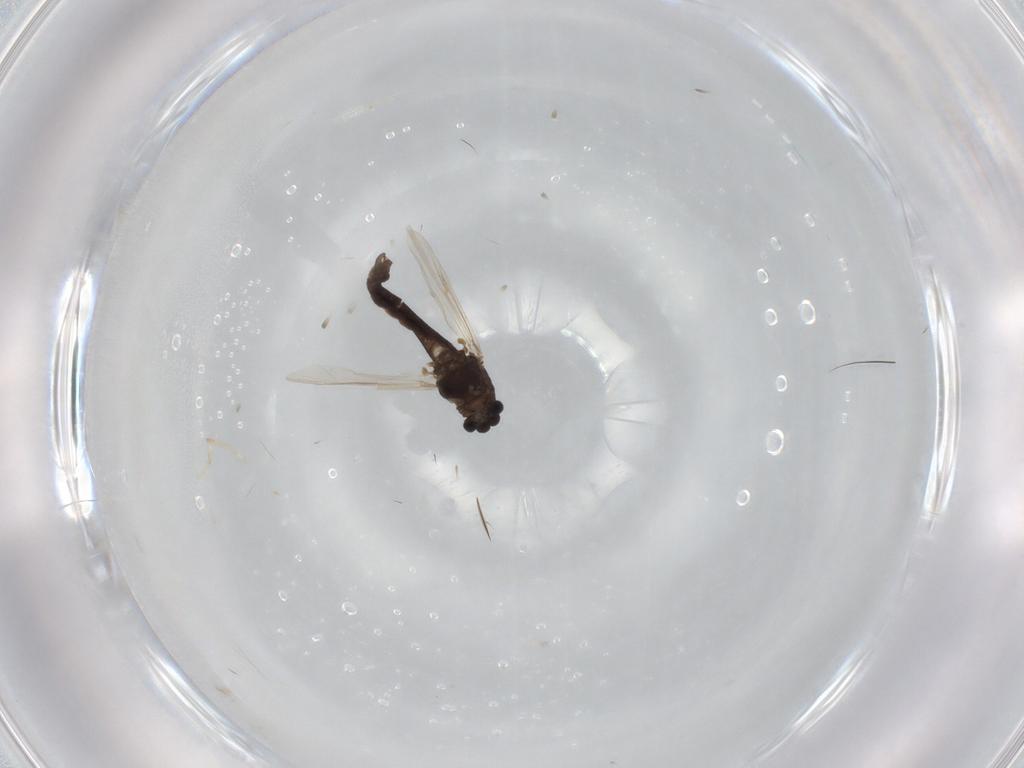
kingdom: Animalia
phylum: Arthropoda
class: Insecta
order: Diptera
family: Chironomidae
